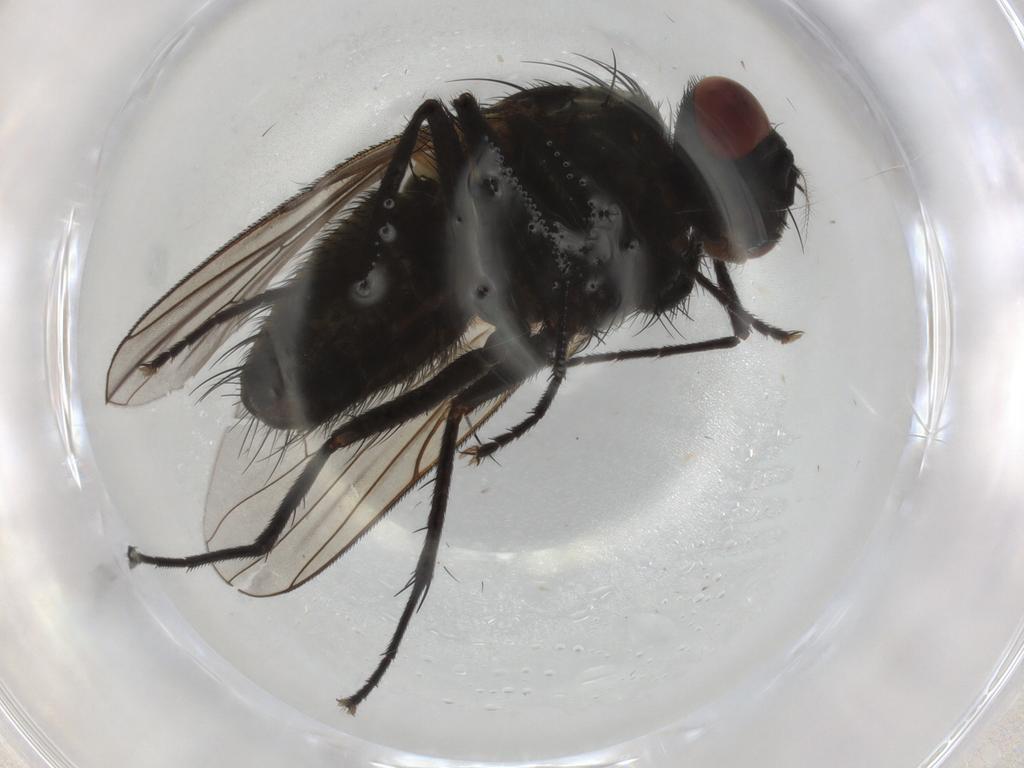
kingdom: Animalia
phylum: Arthropoda
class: Insecta
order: Diptera
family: Muscidae
